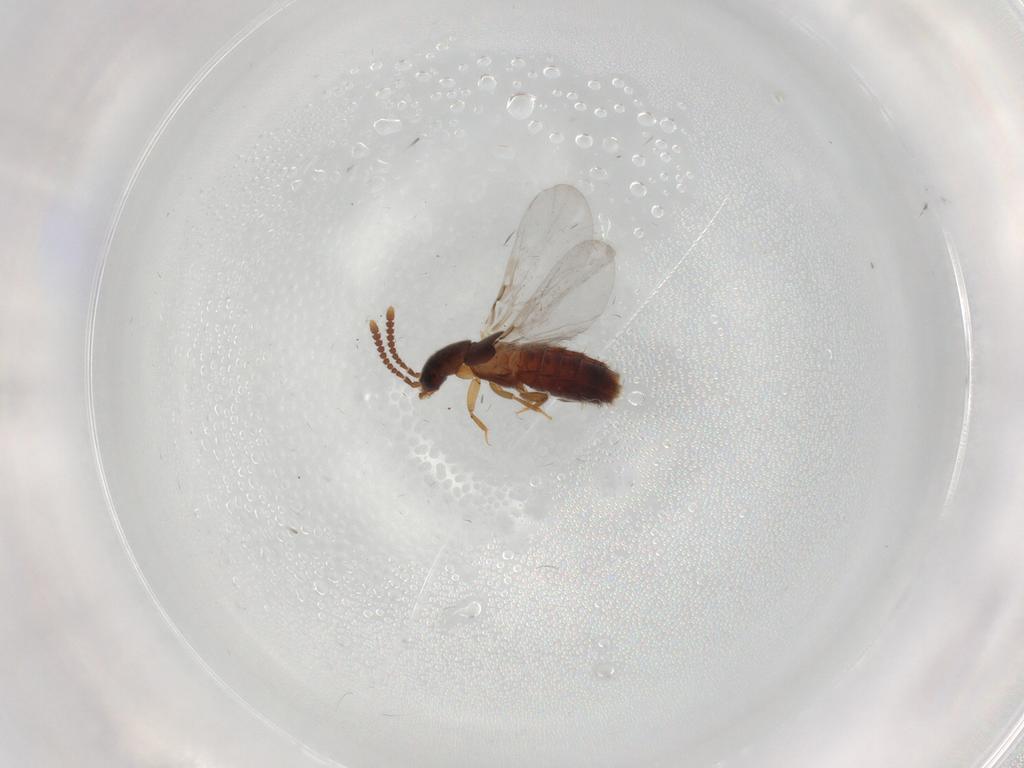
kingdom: Animalia
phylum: Arthropoda
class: Insecta
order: Coleoptera
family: Staphylinidae
